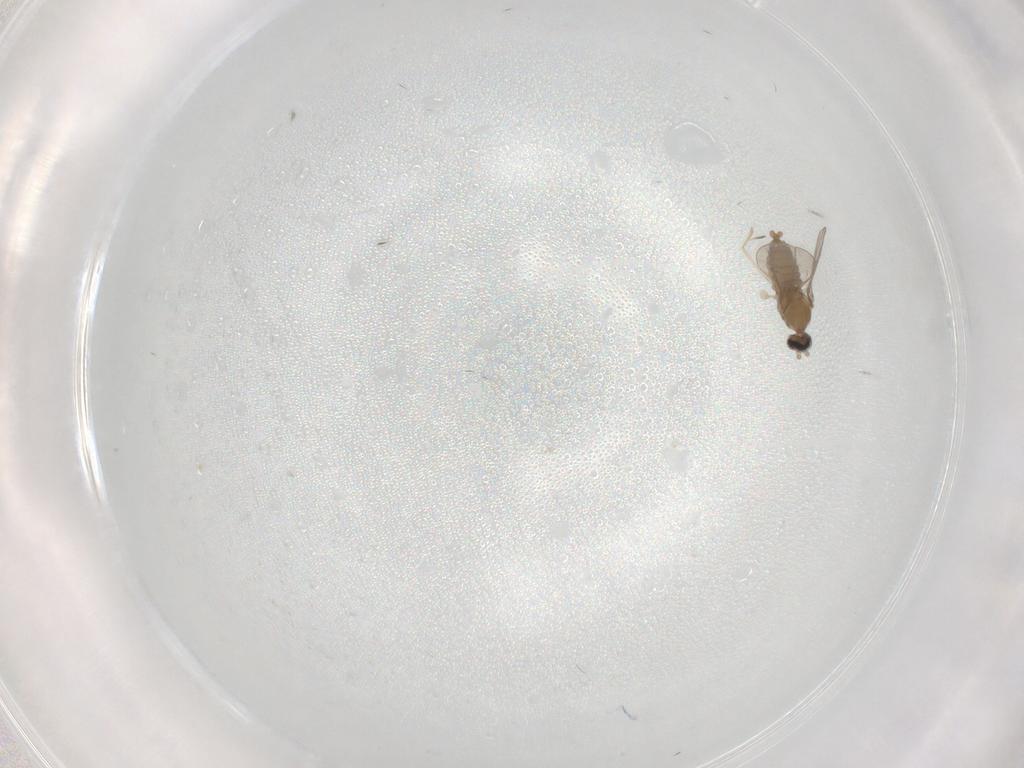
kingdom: Animalia
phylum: Arthropoda
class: Insecta
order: Diptera
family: Cecidomyiidae
